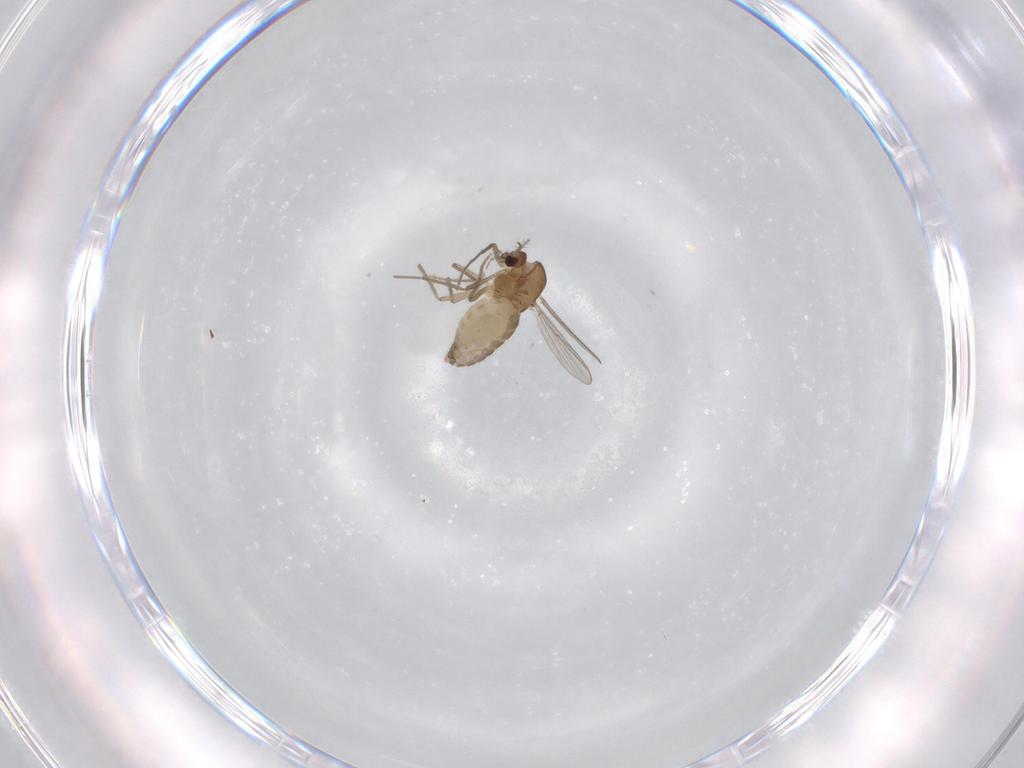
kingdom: Animalia
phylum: Arthropoda
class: Insecta
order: Diptera
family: Chironomidae
